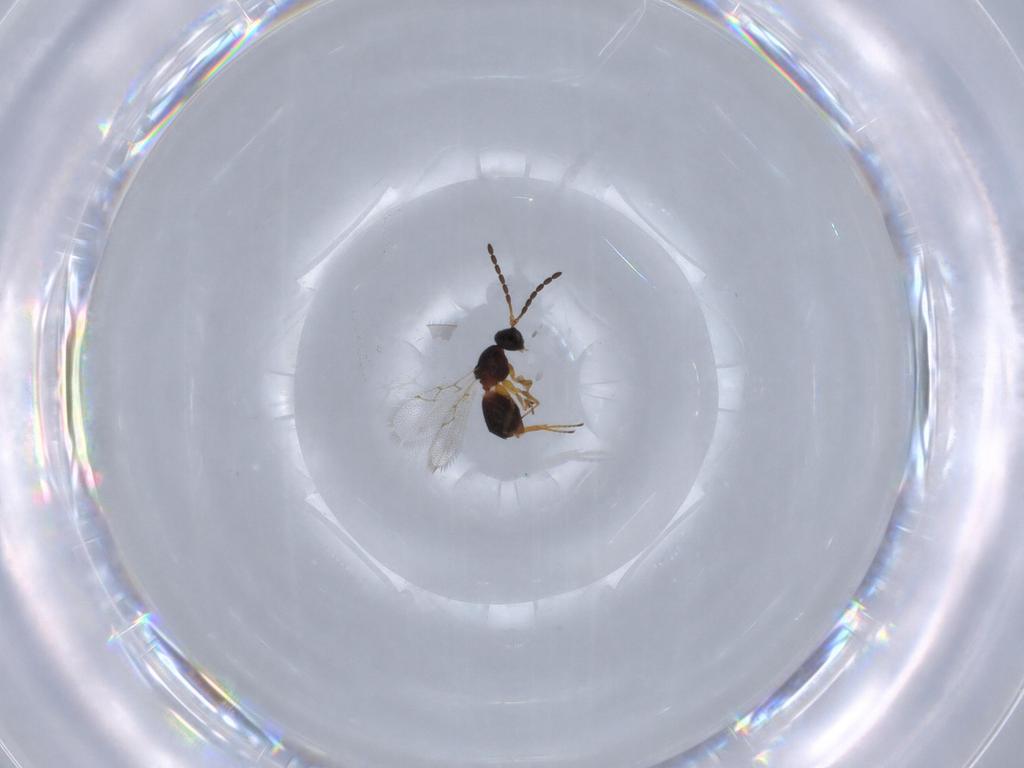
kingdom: Animalia
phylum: Arthropoda
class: Insecta
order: Hymenoptera
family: Figitidae
